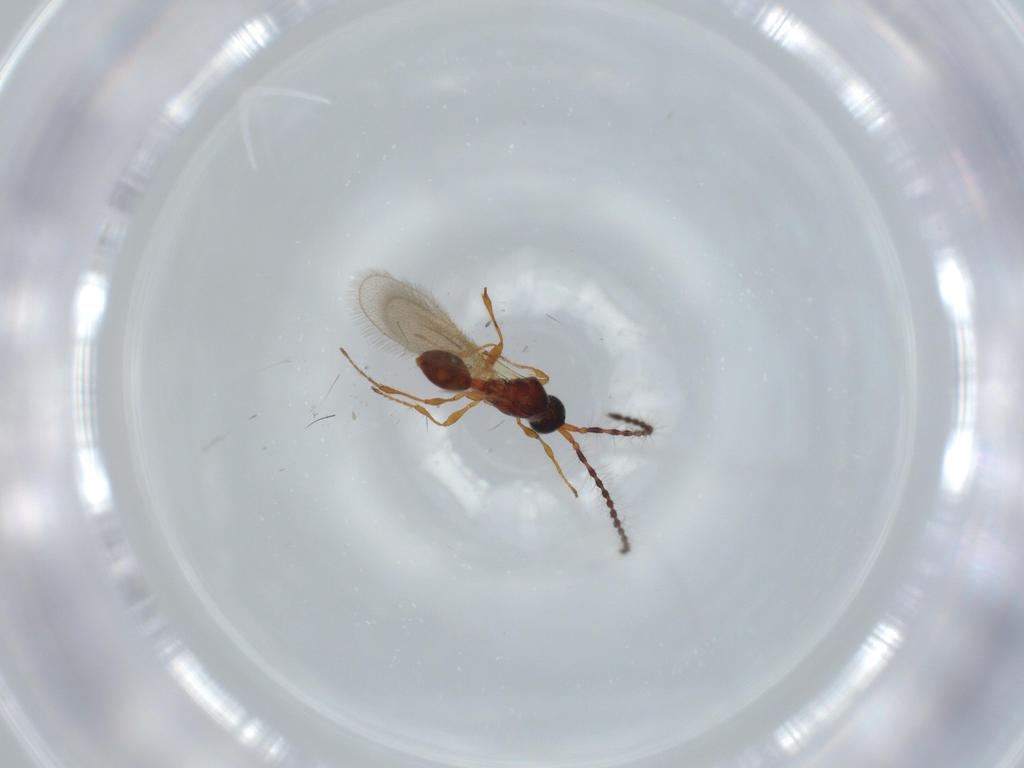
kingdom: Animalia
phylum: Arthropoda
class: Insecta
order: Hymenoptera
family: Diapriidae
